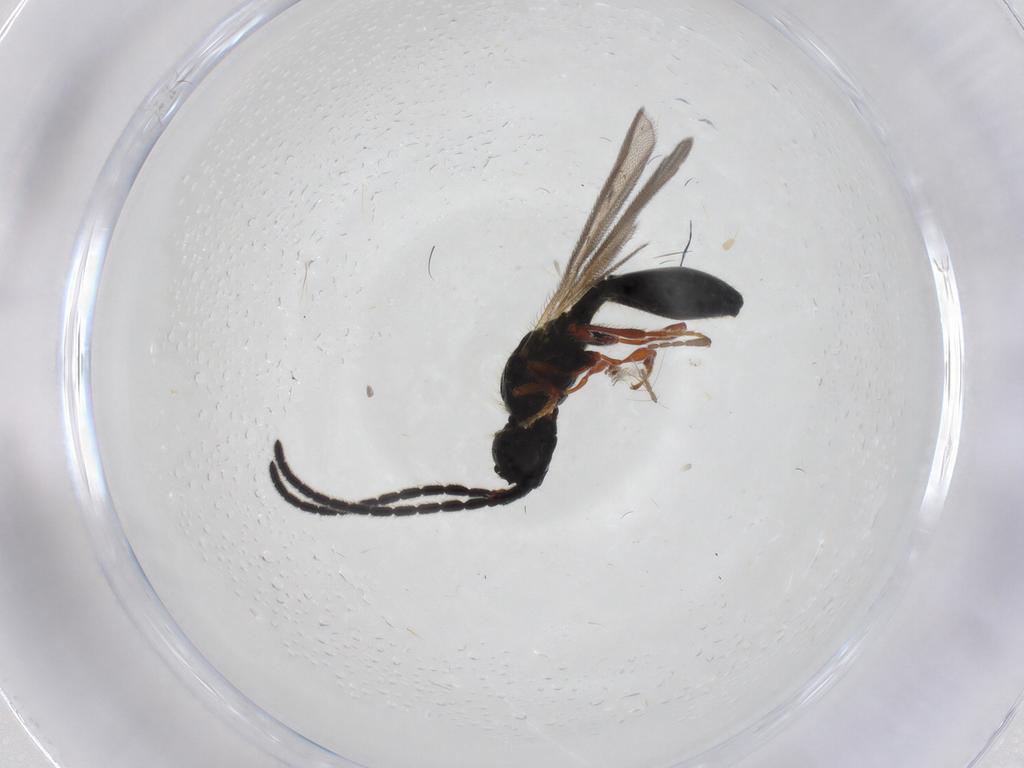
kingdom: Animalia
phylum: Arthropoda
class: Insecta
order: Hymenoptera
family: Diapriidae
